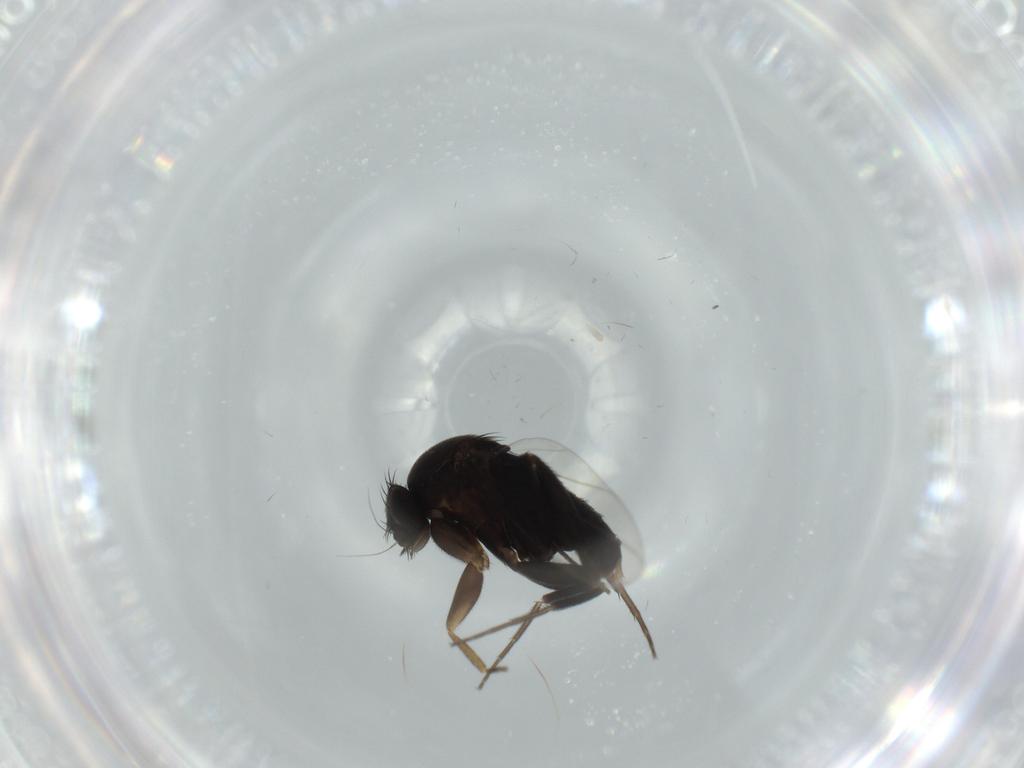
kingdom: Animalia
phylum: Arthropoda
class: Insecta
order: Diptera
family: Phoridae
